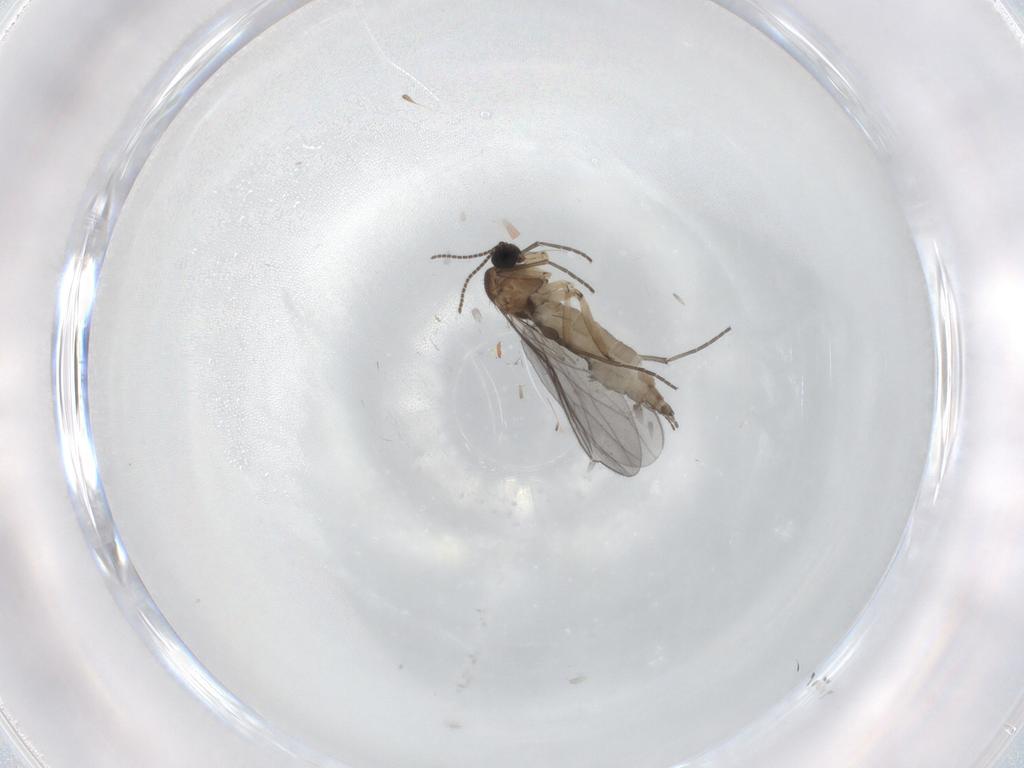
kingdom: Animalia
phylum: Arthropoda
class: Insecta
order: Diptera
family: Sciaridae
